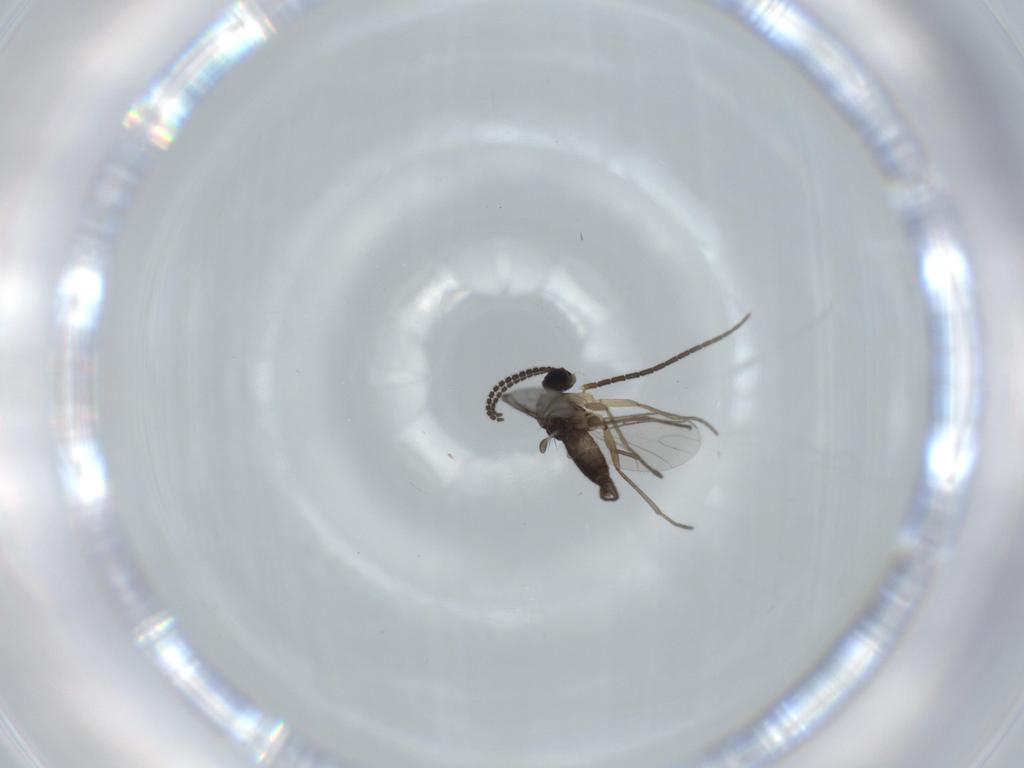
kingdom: Animalia
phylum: Arthropoda
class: Insecta
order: Diptera
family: Sciaridae
